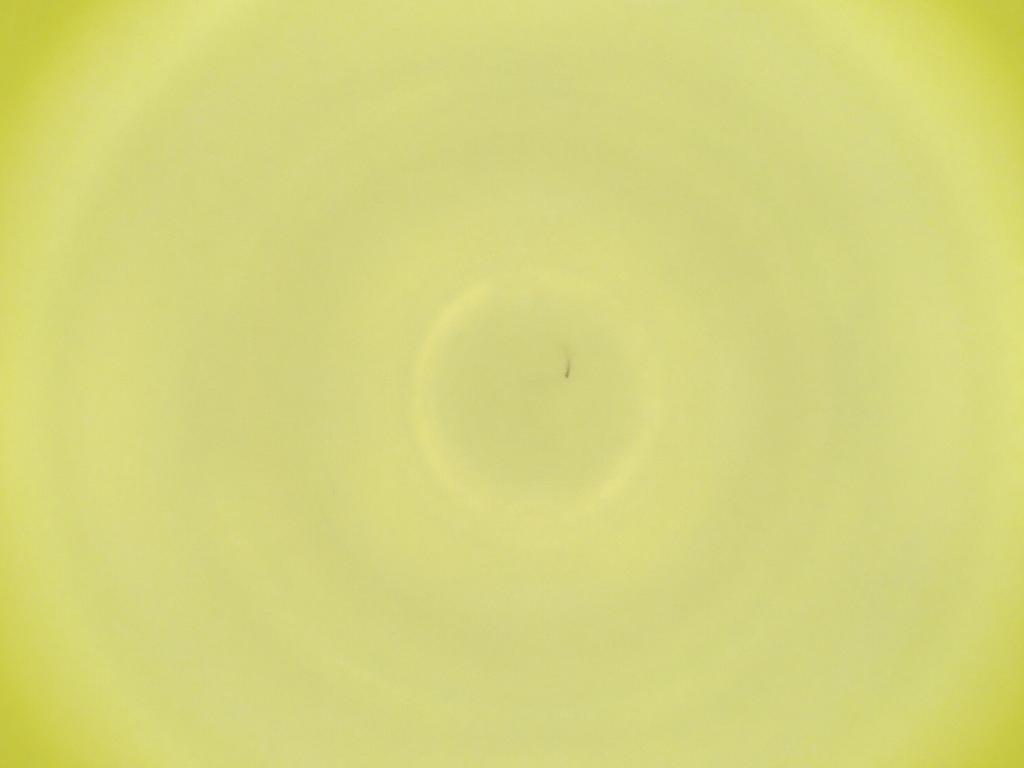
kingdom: Animalia
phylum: Arthropoda
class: Insecta
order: Diptera
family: Cecidomyiidae
